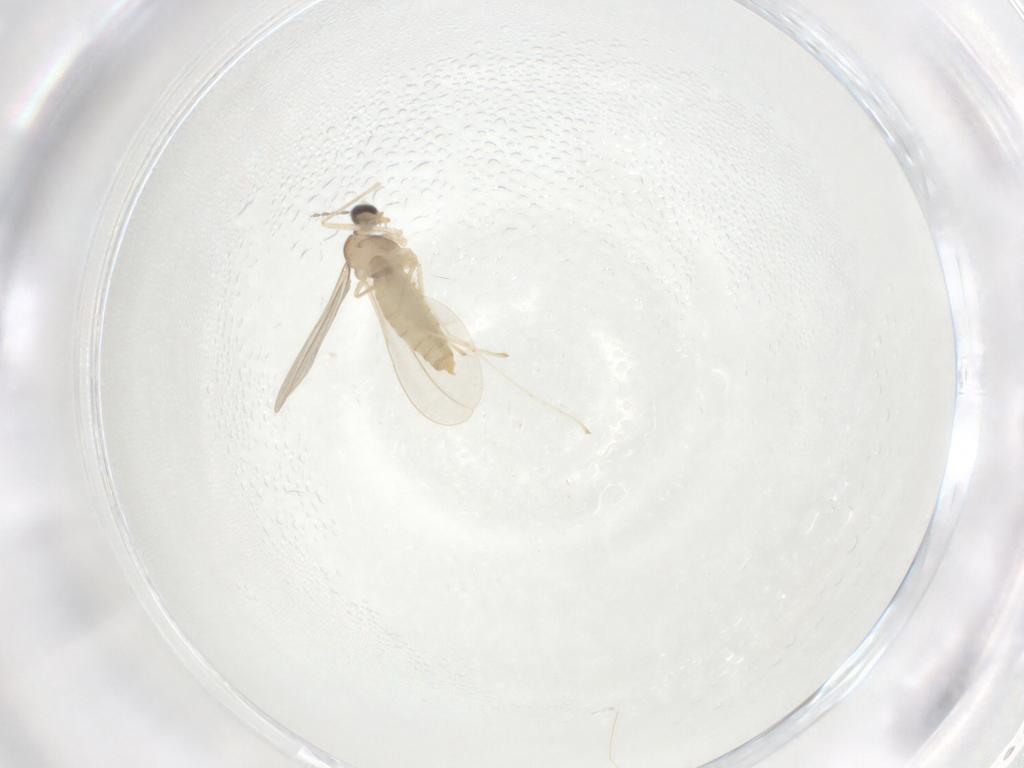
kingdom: Animalia
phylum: Arthropoda
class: Insecta
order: Diptera
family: Cecidomyiidae
